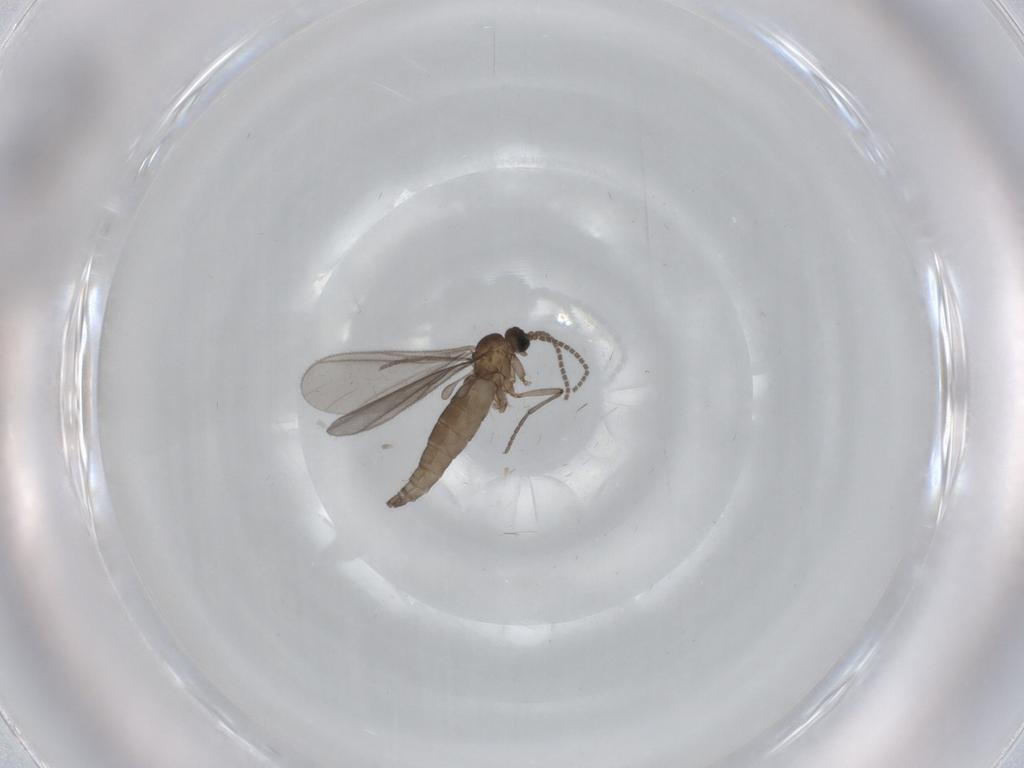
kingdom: Animalia
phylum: Arthropoda
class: Insecta
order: Diptera
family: Sciaridae
